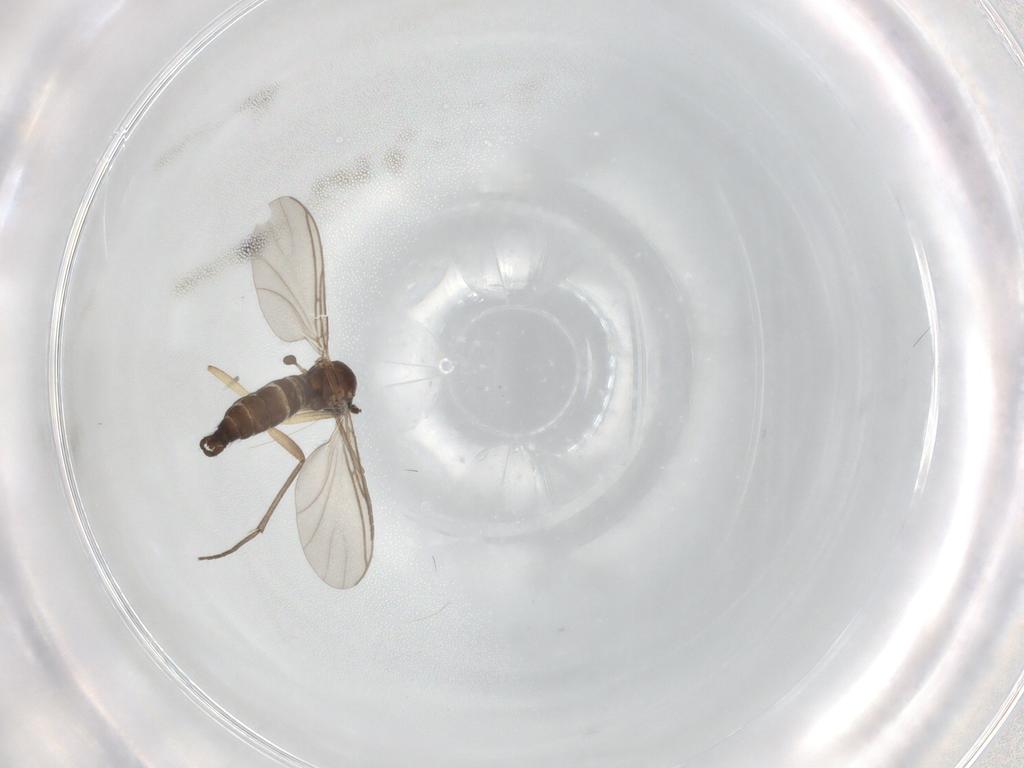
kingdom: Animalia
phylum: Arthropoda
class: Insecta
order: Diptera
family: Sciaridae
